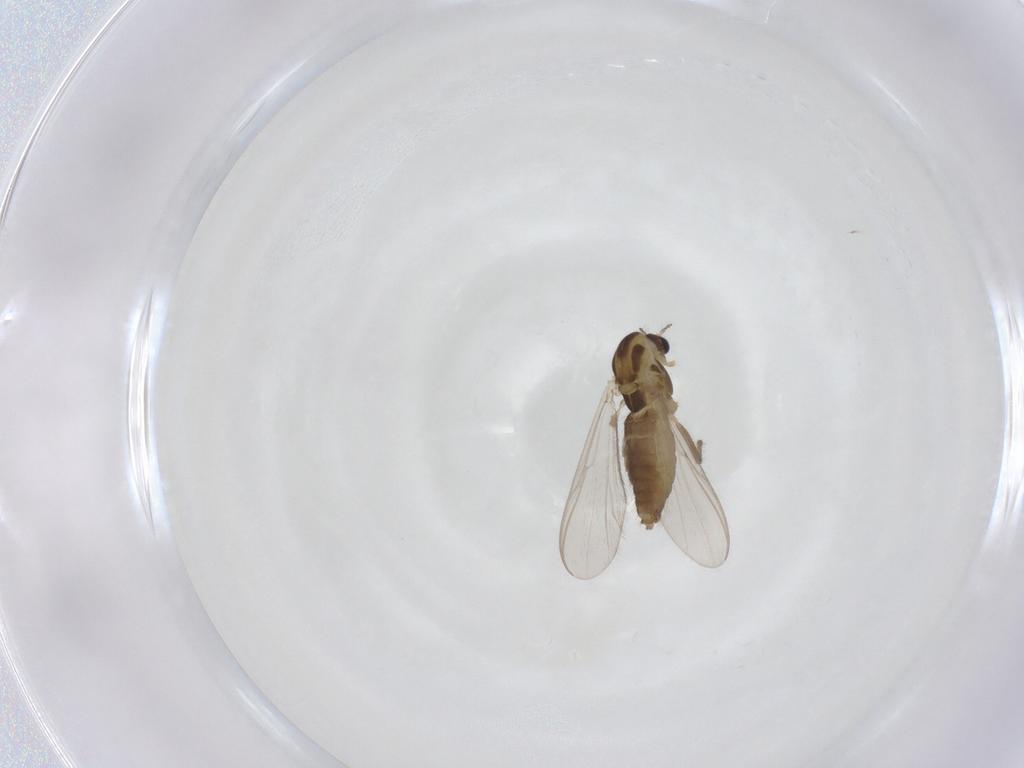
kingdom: Animalia
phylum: Arthropoda
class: Insecta
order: Diptera
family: Chironomidae
